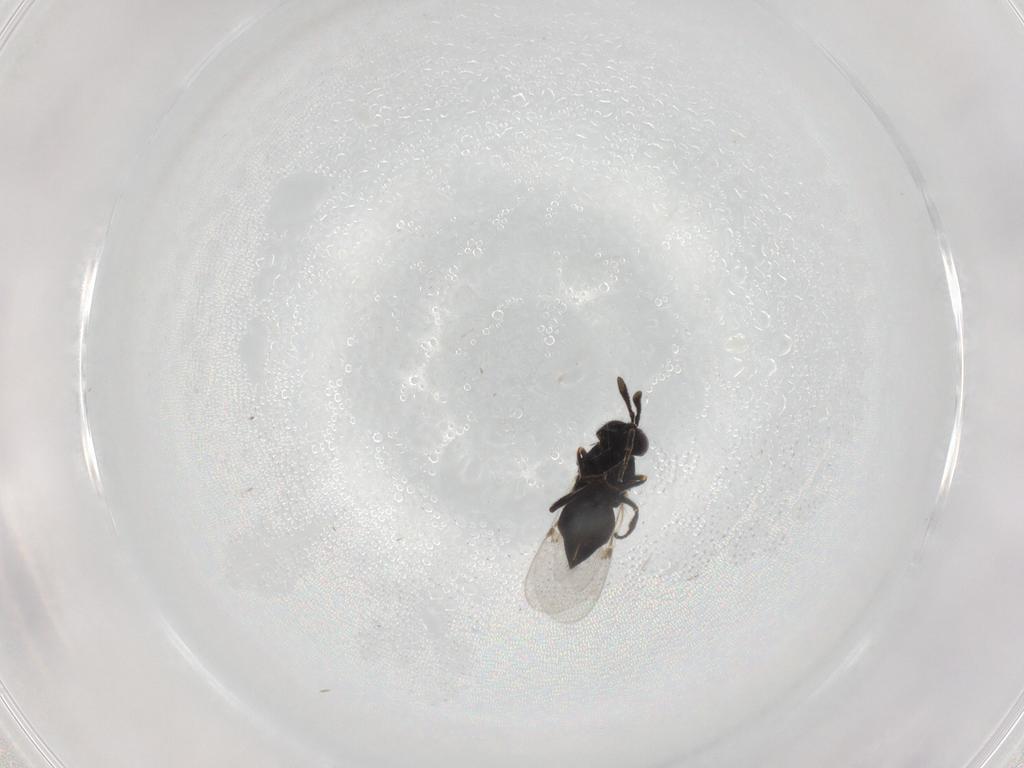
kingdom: Animalia
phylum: Arthropoda
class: Insecta
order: Hymenoptera
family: Encyrtidae
